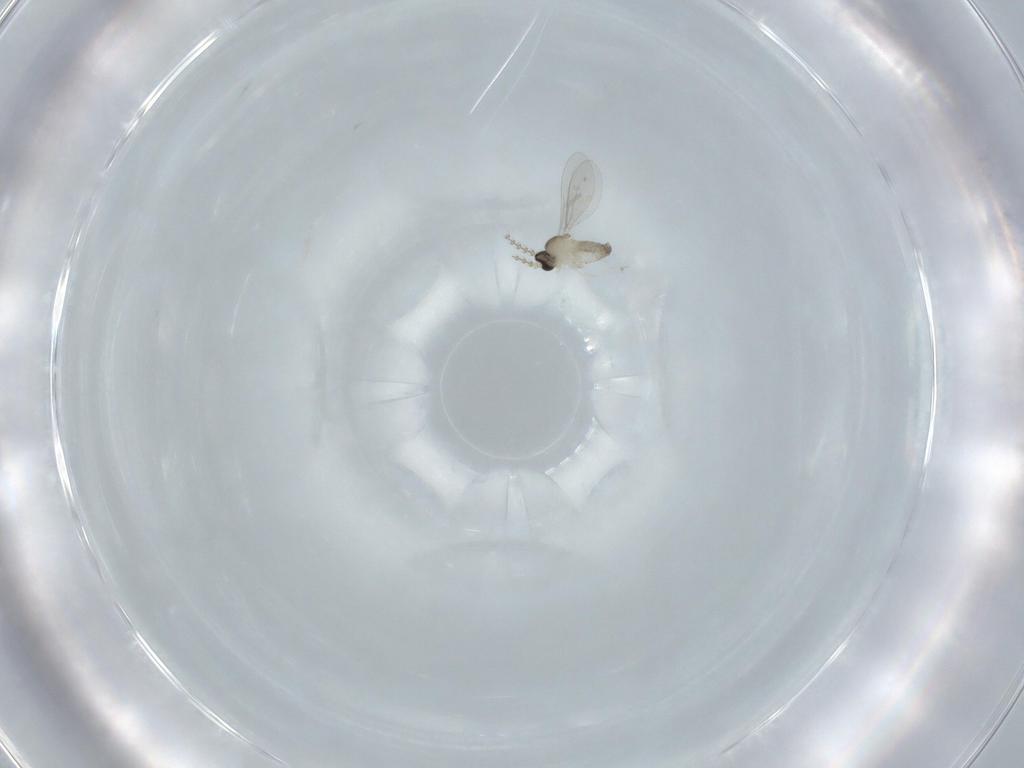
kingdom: Animalia
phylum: Arthropoda
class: Insecta
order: Diptera
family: Cecidomyiidae
